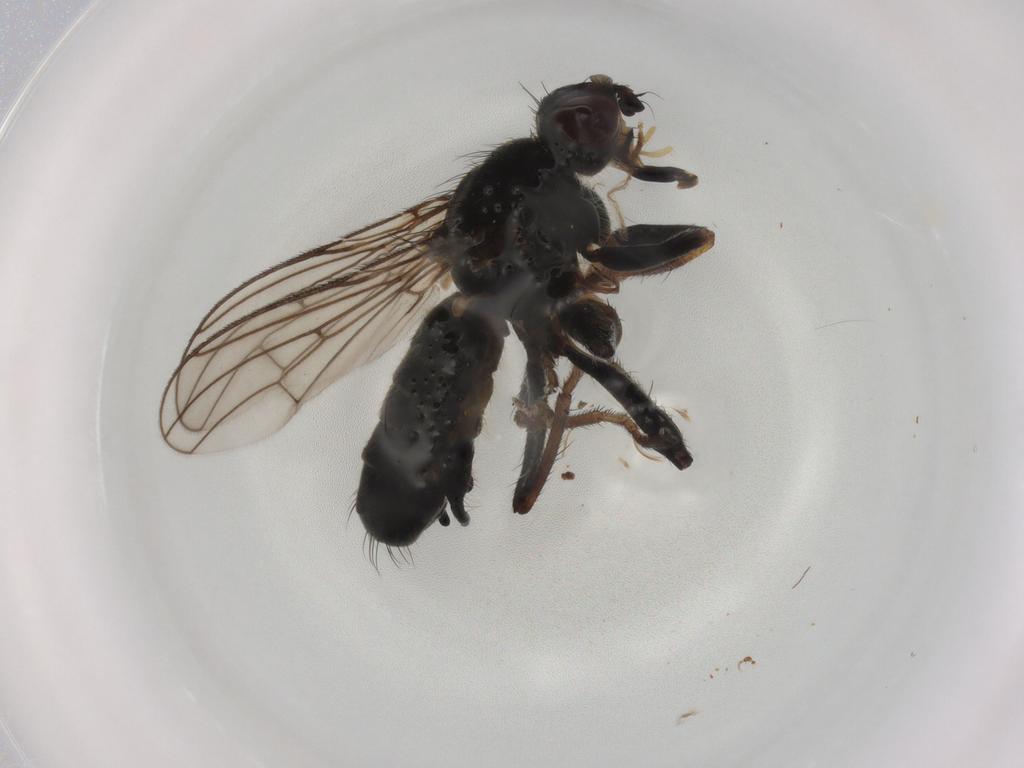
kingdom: Animalia
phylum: Arthropoda
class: Insecta
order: Diptera
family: Scathophagidae
